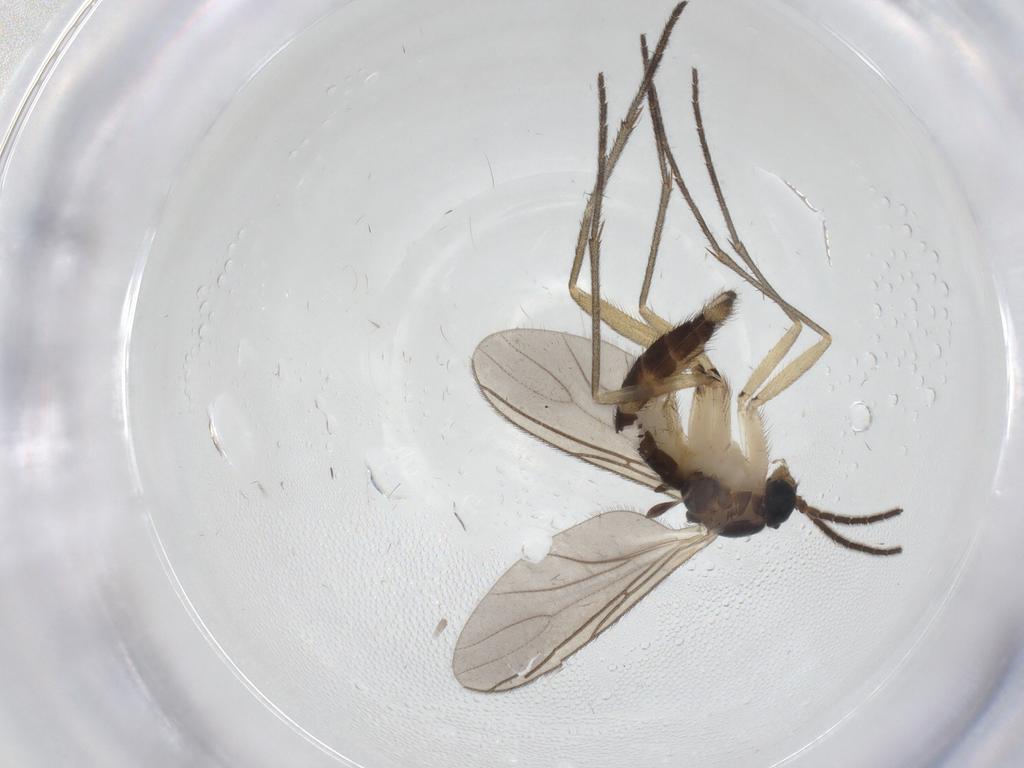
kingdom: Animalia
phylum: Arthropoda
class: Insecta
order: Diptera
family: Sciaridae
